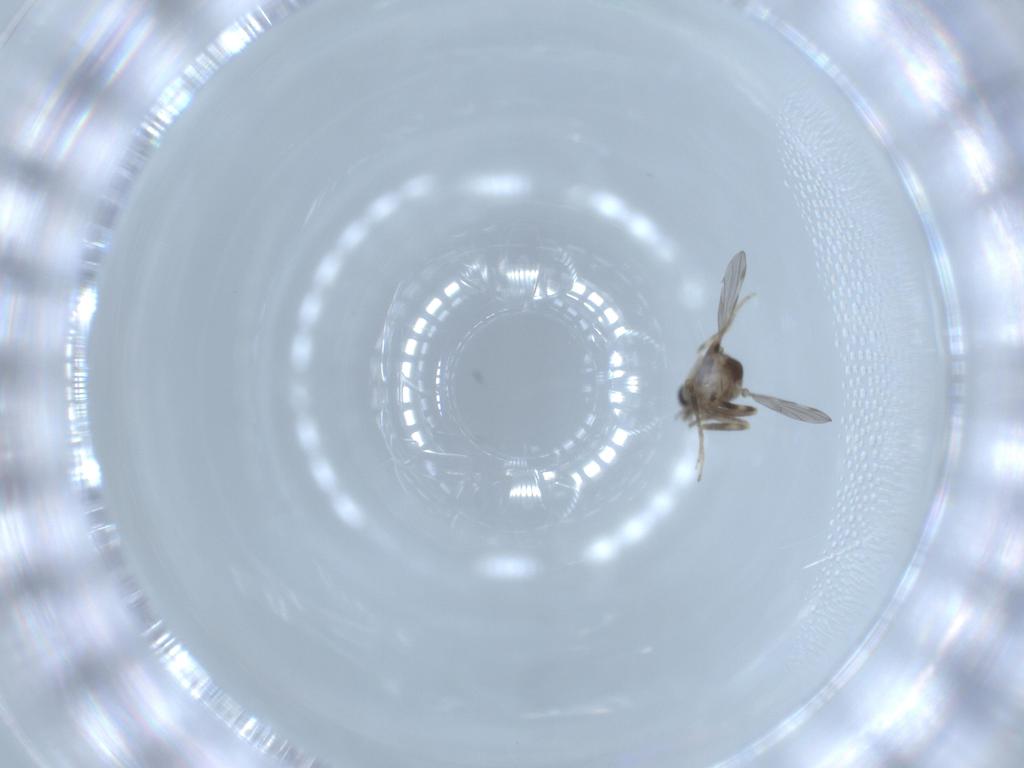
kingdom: Animalia
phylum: Arthropoda
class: Insecta
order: Diptera
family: Ceratopogonidae
